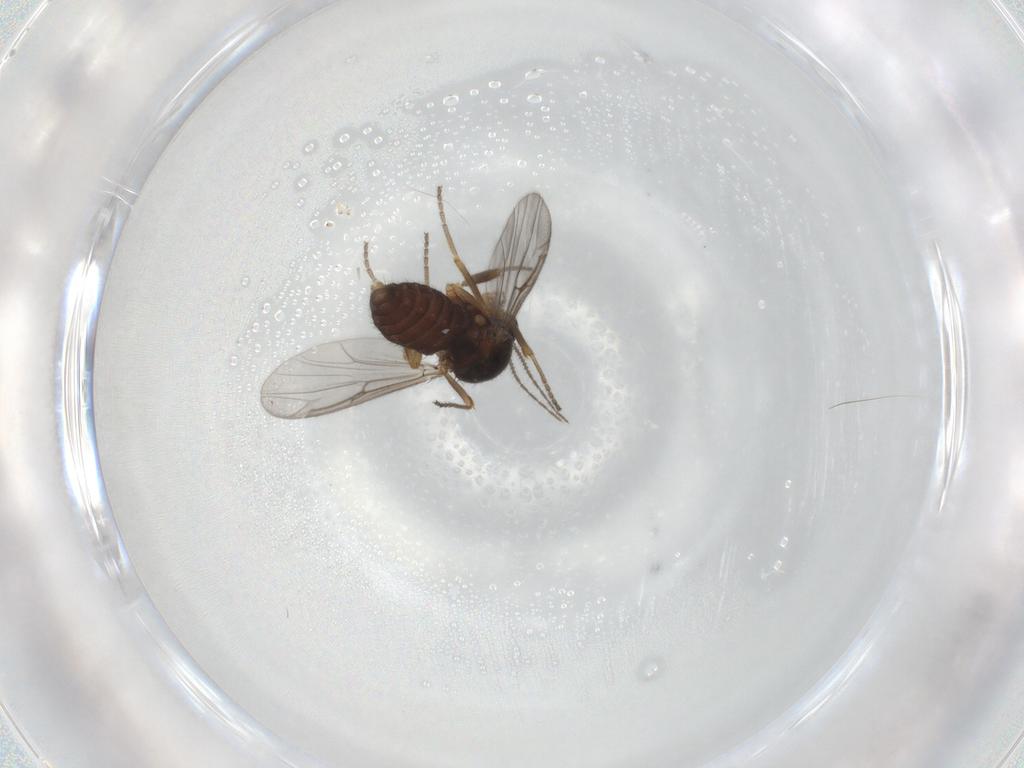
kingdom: Animalia
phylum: Arthropoda
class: Insecta
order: Diptera
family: Ceratopogonidae
